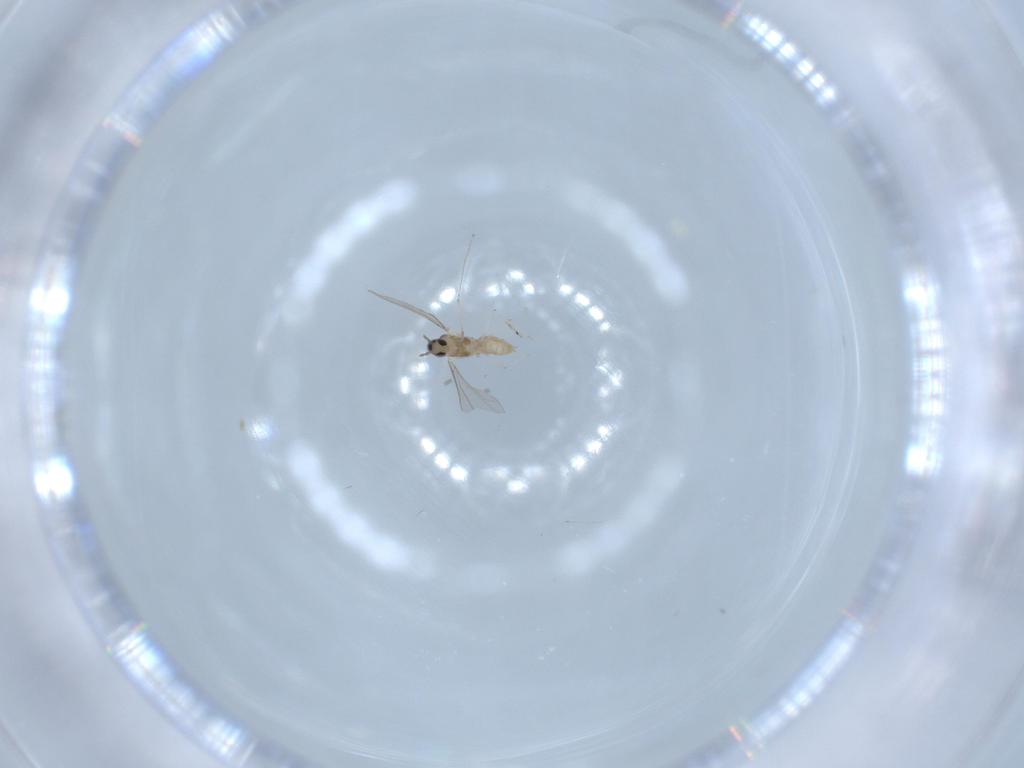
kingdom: Animalia
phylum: Arthropoda
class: Insecta
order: Diptera
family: Cecidomyiidae
